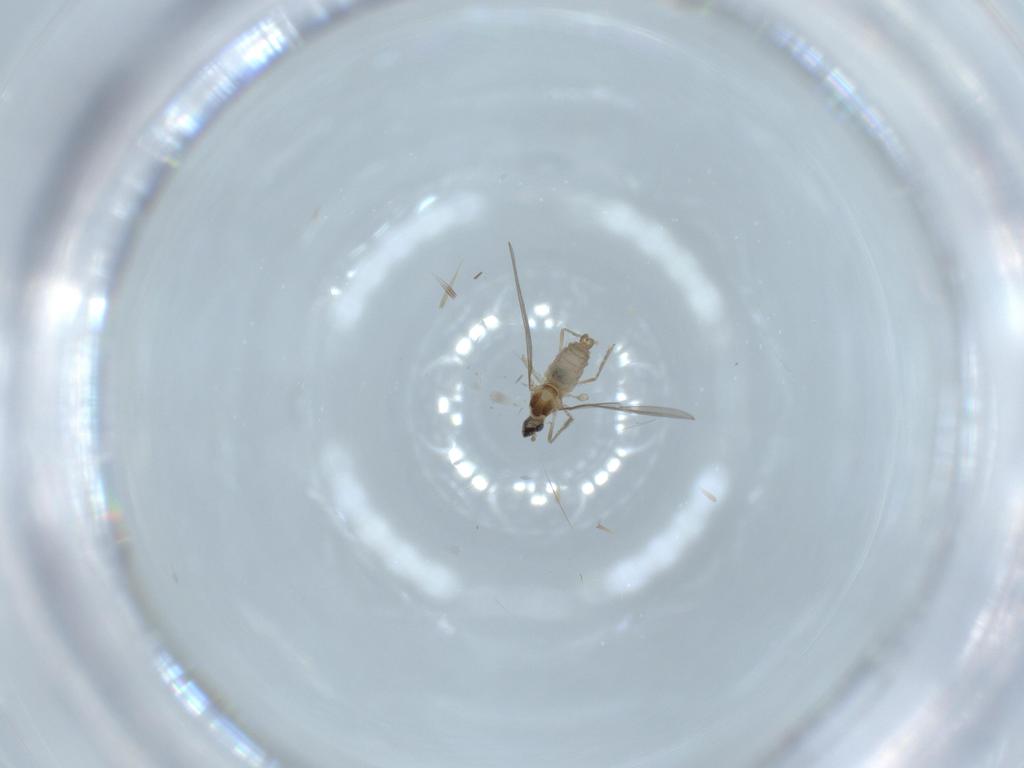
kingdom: Animalia
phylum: Arthropoda
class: Insecta
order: Diptera
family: Cecidomyiidae
